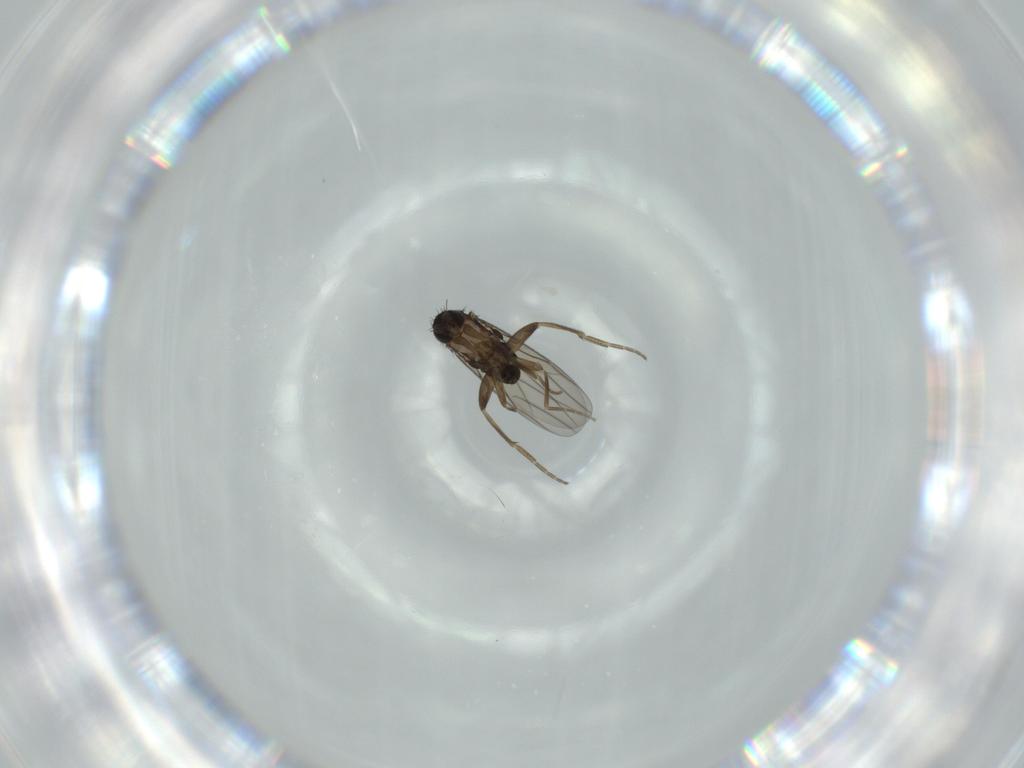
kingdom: Animalia
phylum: Arthropoda
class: Insecta
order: Diptera
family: Phoridae
